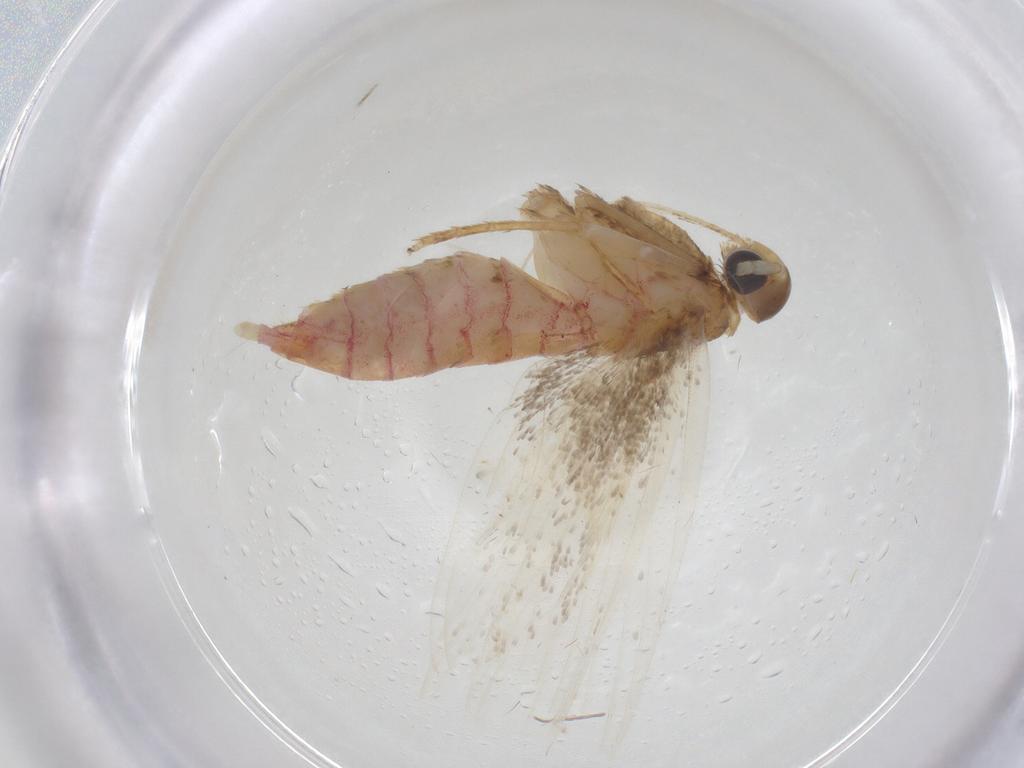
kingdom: Animalia
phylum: Arthropoda
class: Insecta
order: Lepidoptera
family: Lecithoceridae
